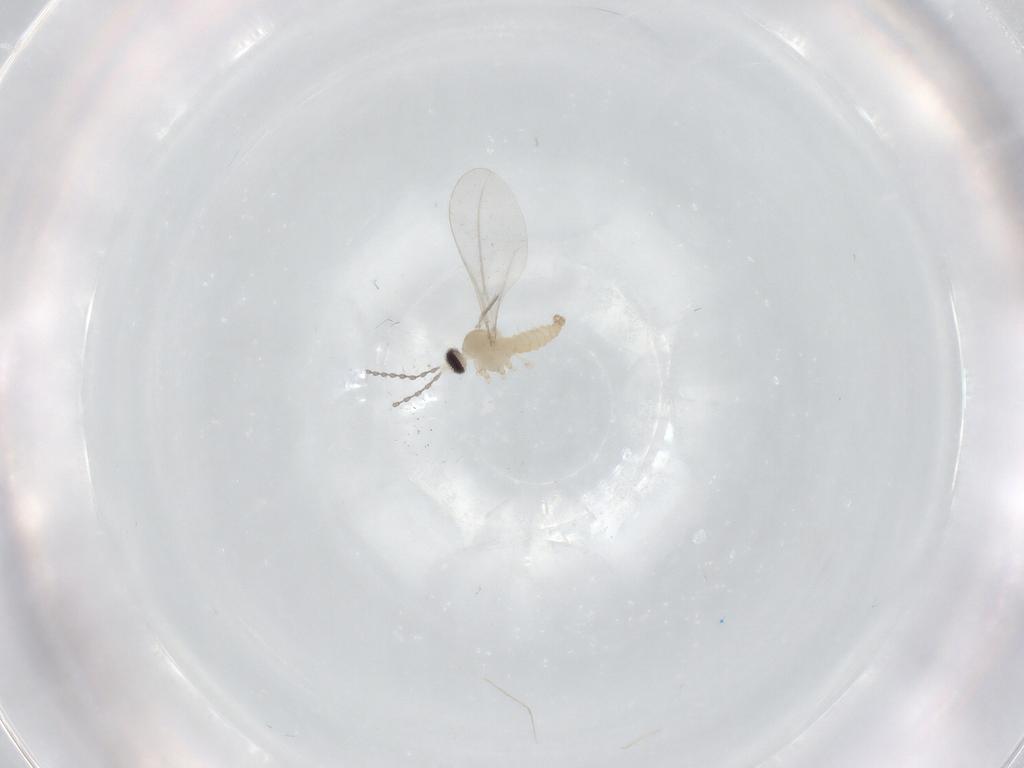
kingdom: Animalia
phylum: Arthropoda
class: Insecta
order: Diptera
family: Cecidomyiidae
